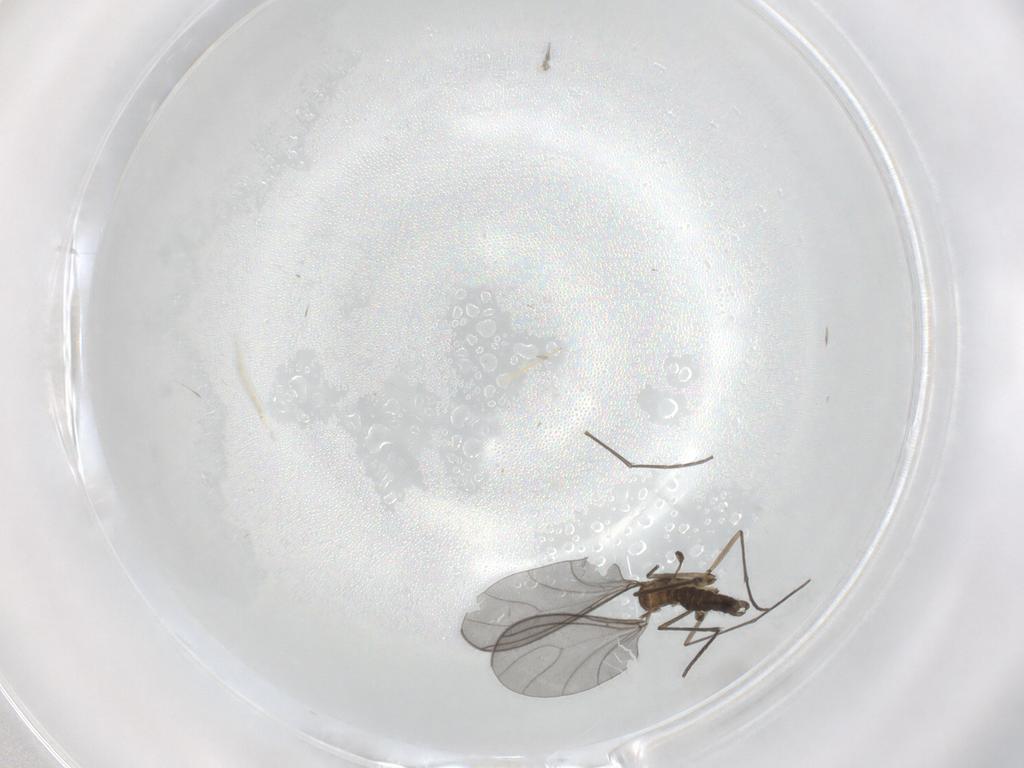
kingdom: Animalia
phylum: Arthropoda
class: Insecta
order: Diptera
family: Sciaridae
